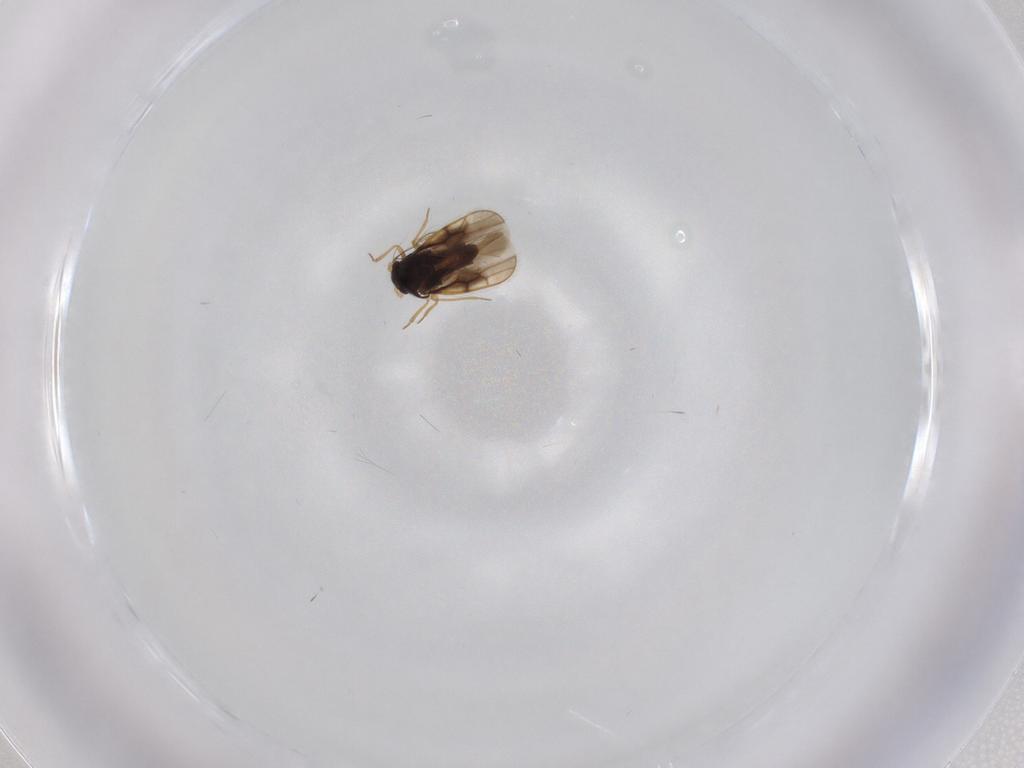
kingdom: Animalia
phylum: Arthropoda
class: Insecta
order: Hemiptera
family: Schizopteridae
